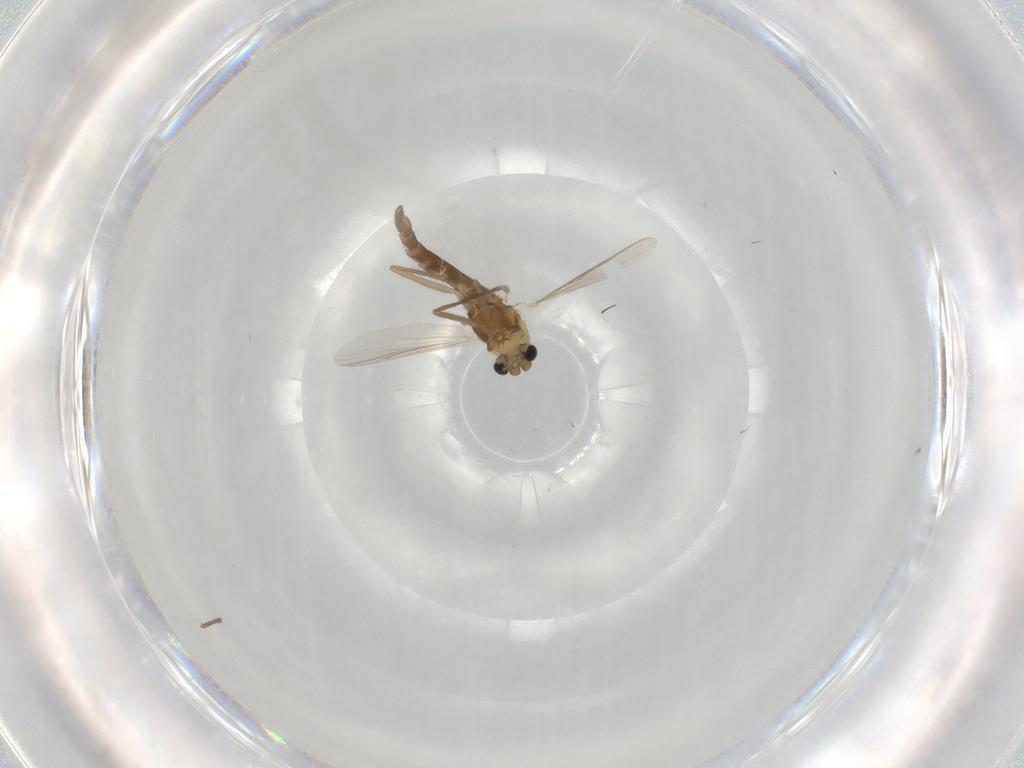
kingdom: Animalia
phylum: Arthropoda
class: Insecta
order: Diptera
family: Chironomidae
